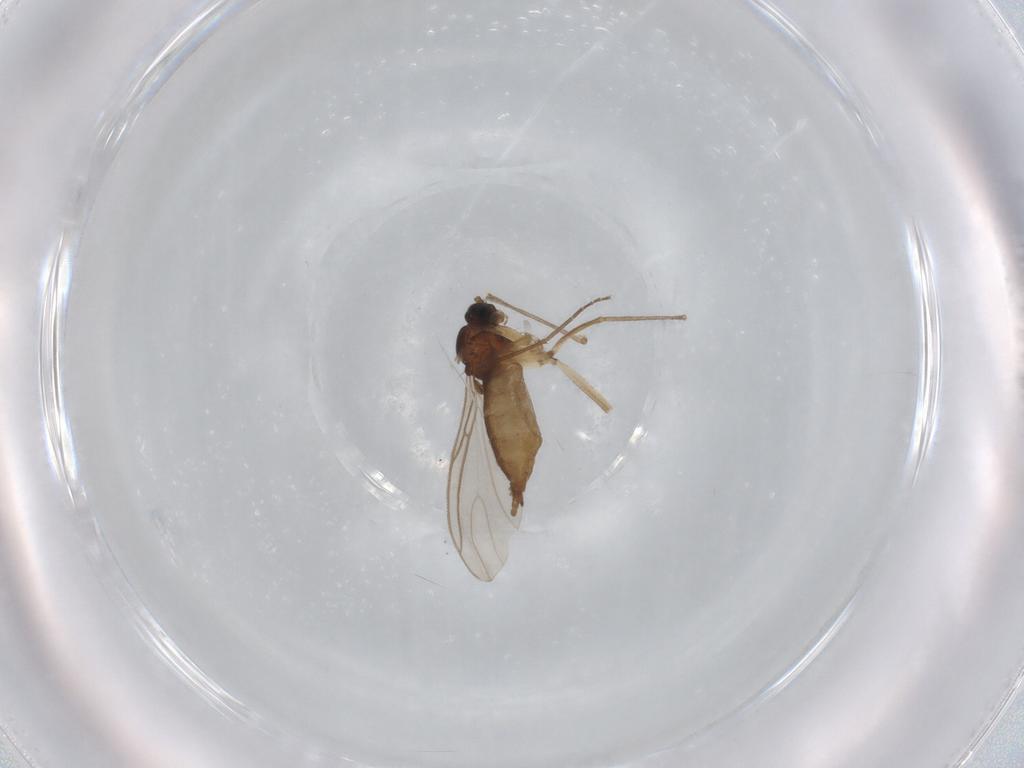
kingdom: Animalia
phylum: Arthropoda
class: Insecta
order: Diptera
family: Sciaridae
